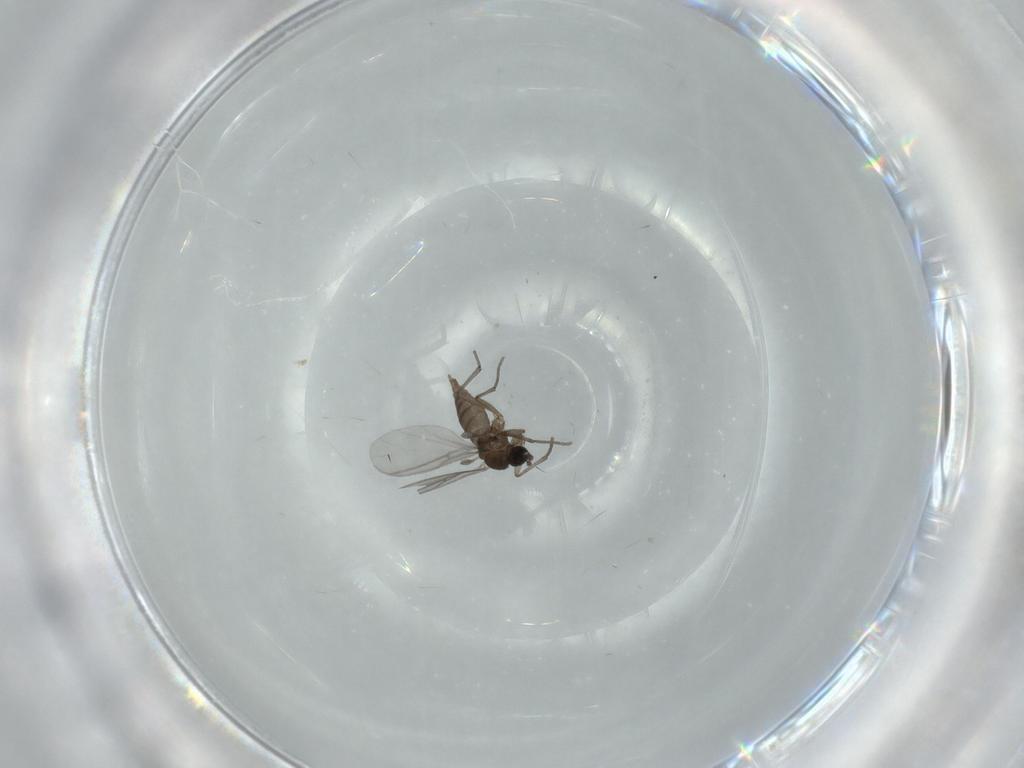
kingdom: Animalia
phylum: Arthropoda
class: Insecta
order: Diptera
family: Sciaridae
